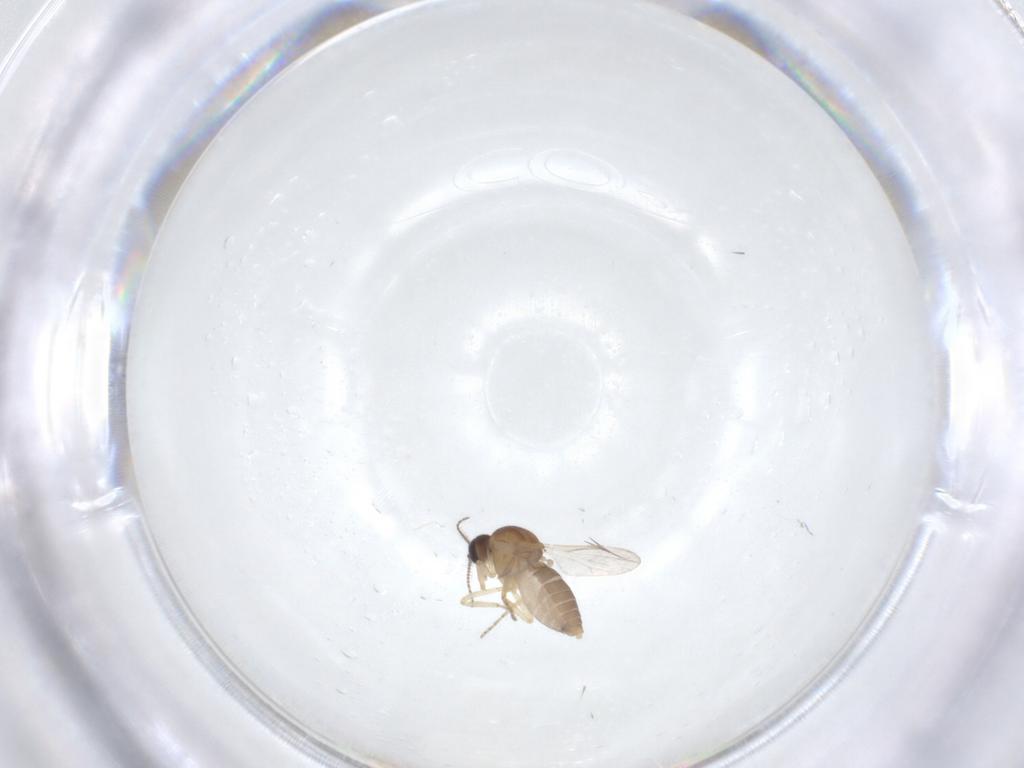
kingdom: Animalia
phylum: Arthropoda
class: Insecta
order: Diptera
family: Ceratopogonidae
